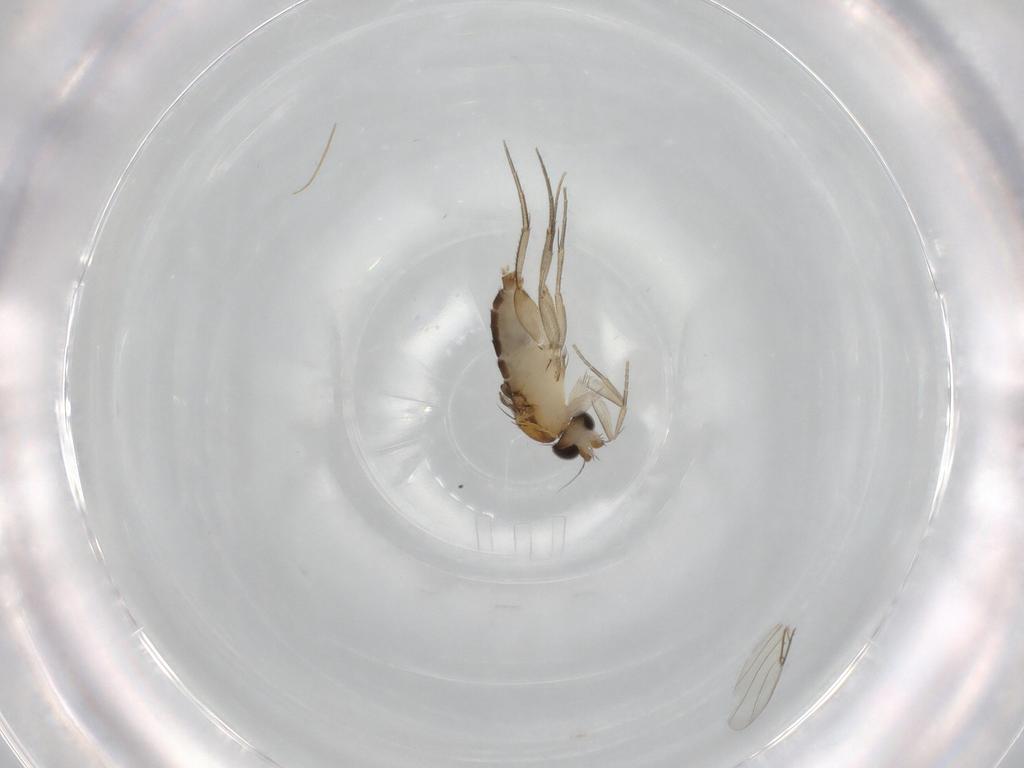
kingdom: Animalia
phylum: Arthropoda
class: Insecta
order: Diptera
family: Phoridae
